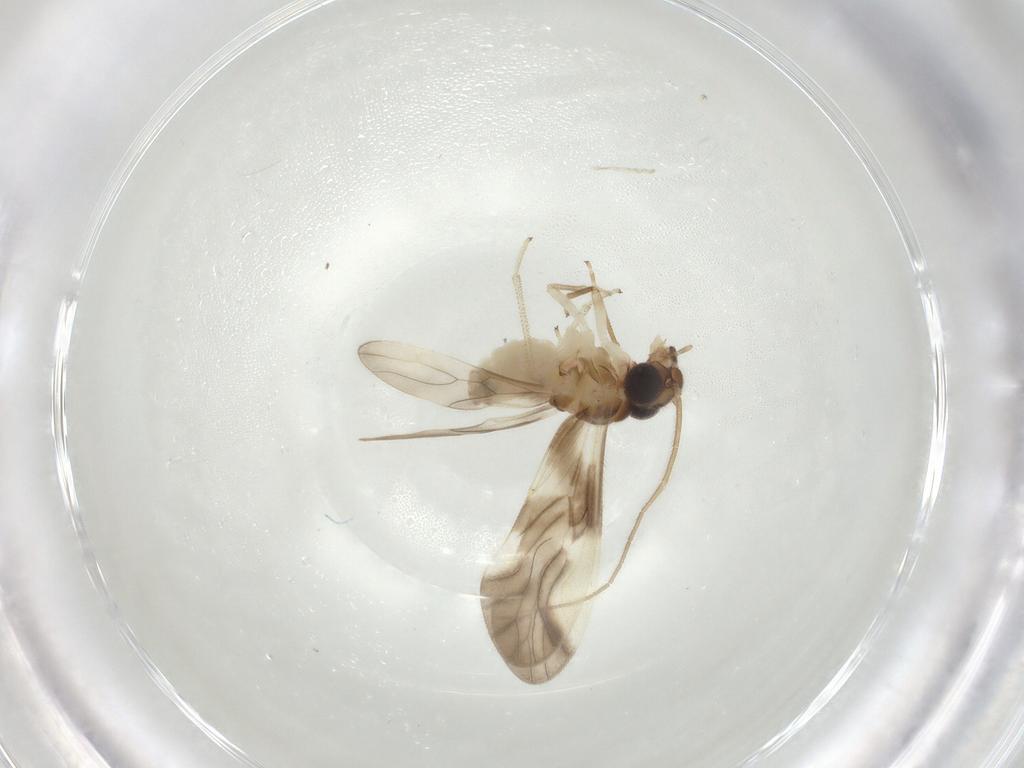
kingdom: Animalia
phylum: Arthropoda
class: Insecta
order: Psocodea
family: Caeciliusidae
